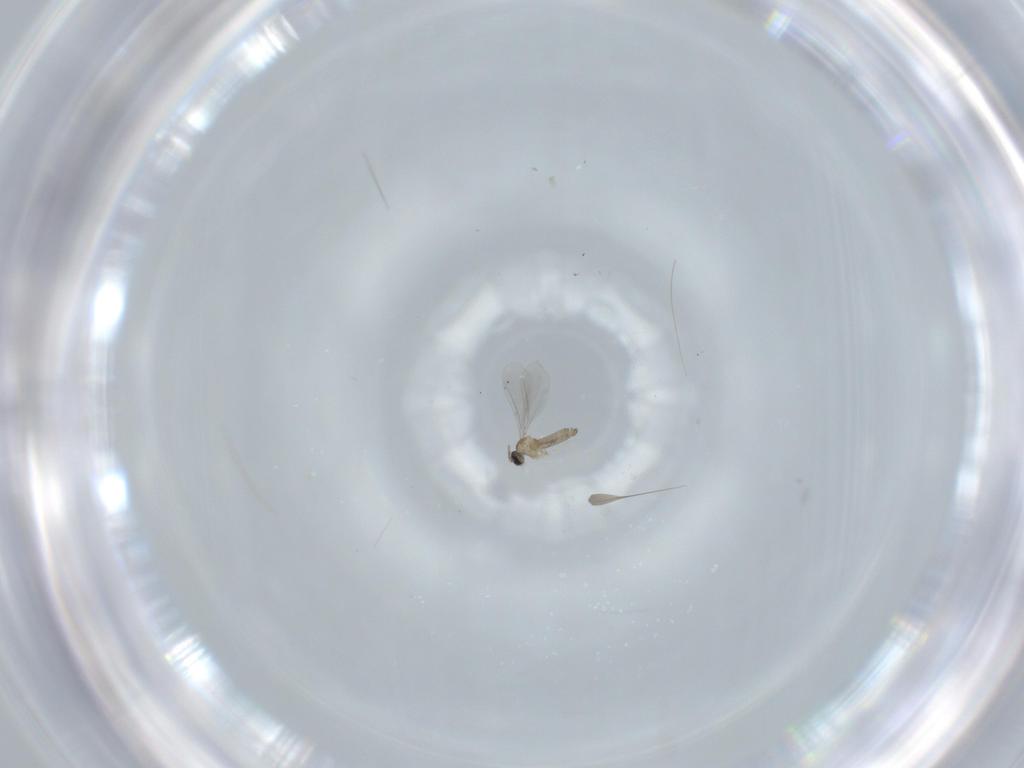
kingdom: Animalia
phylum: Arthropoda
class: Insecta
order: Diptera
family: Cecidomyiidae
